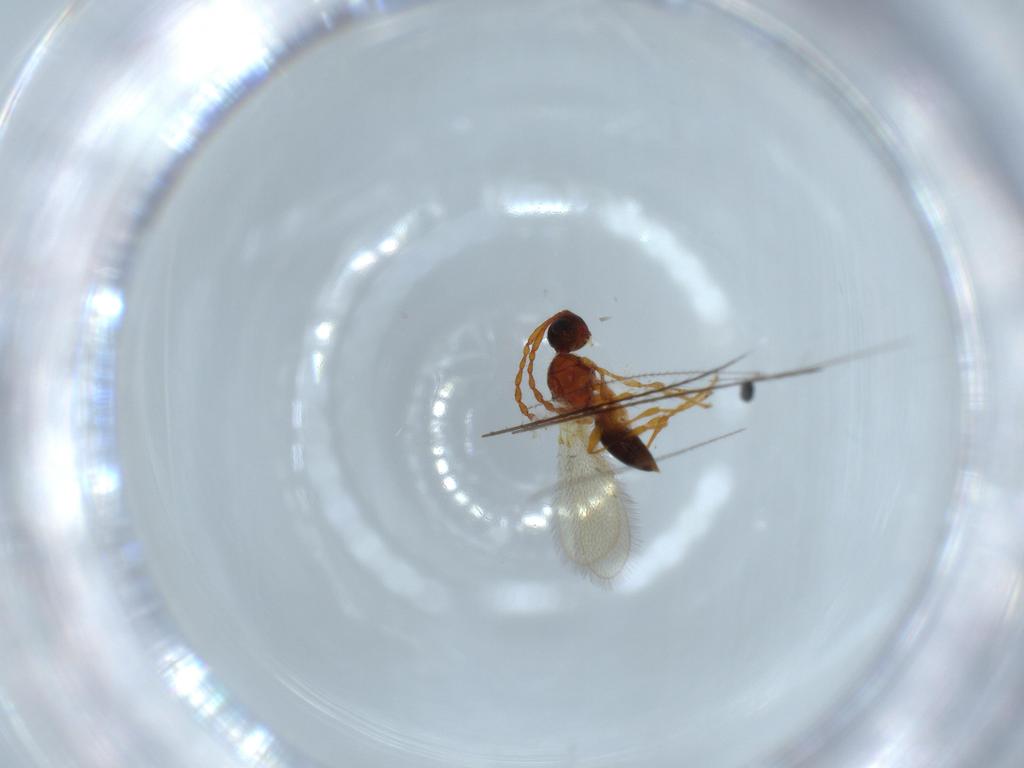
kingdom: Animalia
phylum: Arthropoda
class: Insecta
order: Hymenoptera
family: Diapriidae
